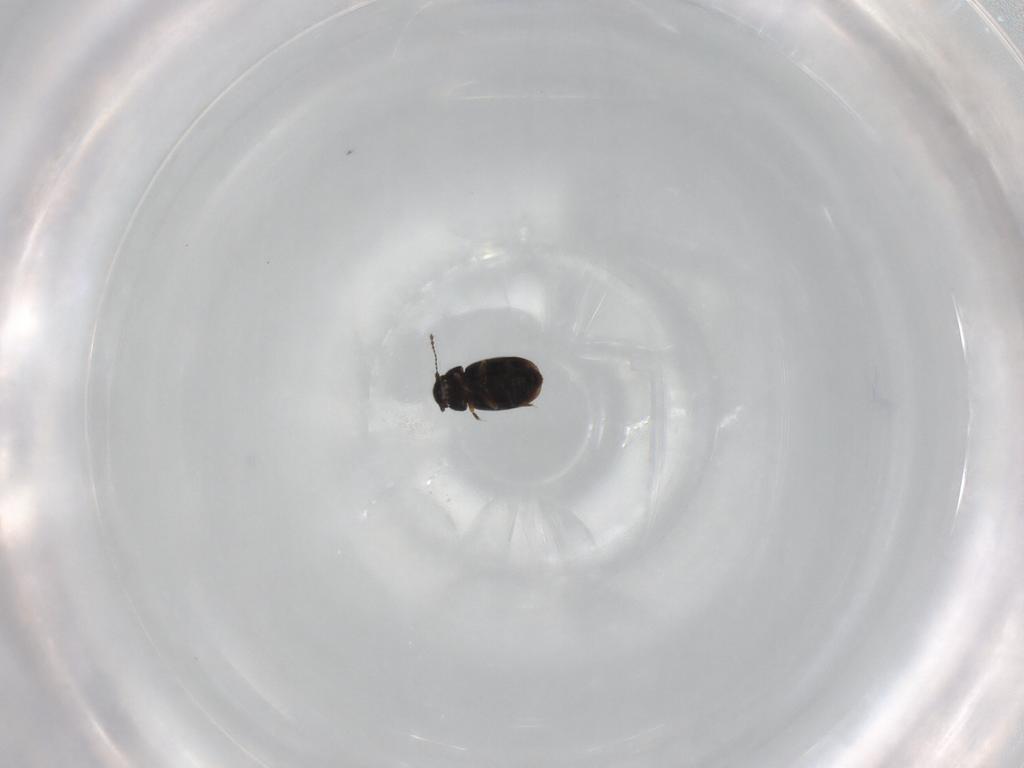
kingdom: Animalia
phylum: Arthropoda
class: Insecta
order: Coleoptera
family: Ptiliidae
